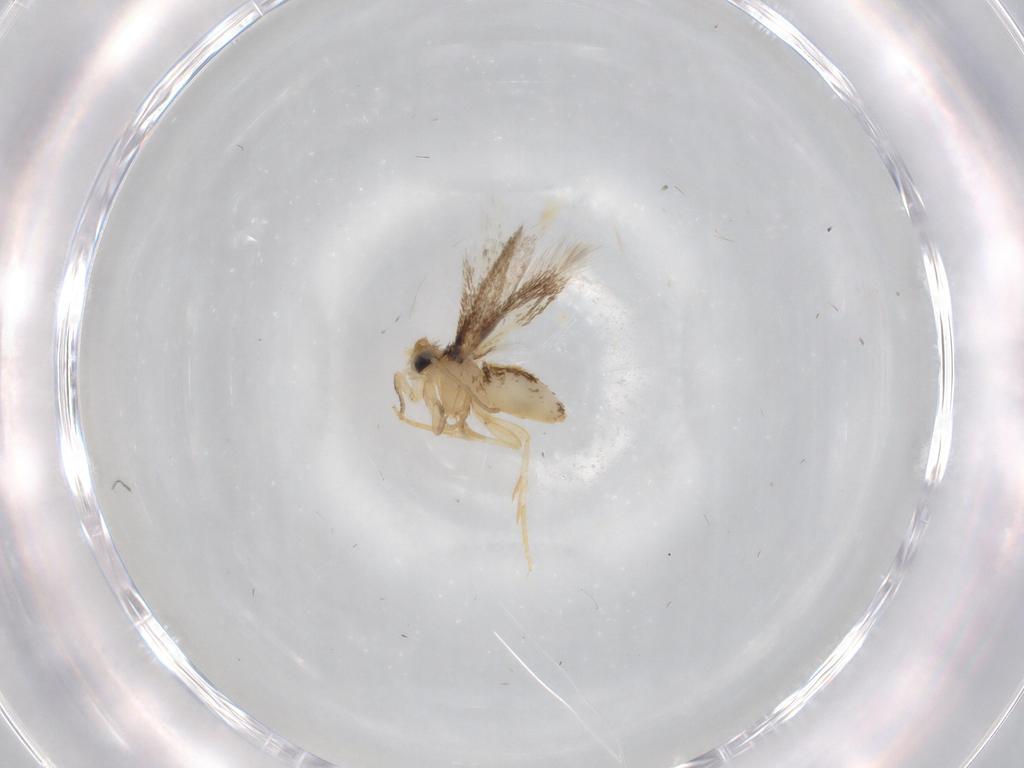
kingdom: Animalia
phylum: Arthropoda
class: Insecta
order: Lepidoptera
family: Nepticulidae
